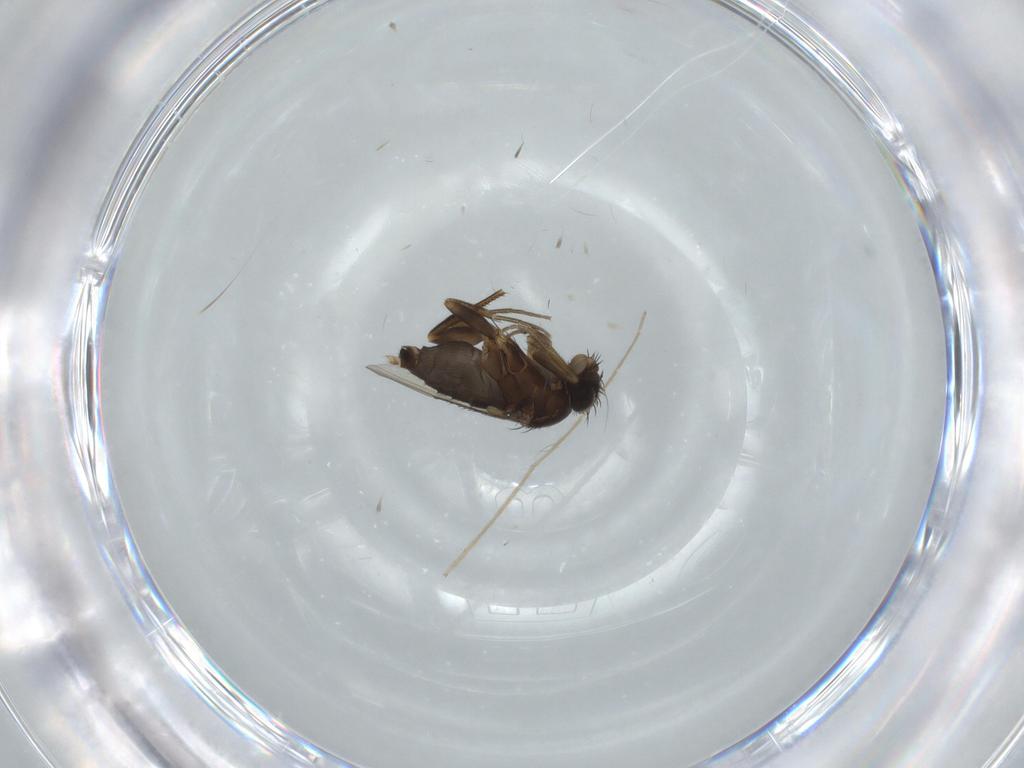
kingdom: Animalia
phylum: Arthropoda
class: Insecta
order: Diptera
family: Phoridae
